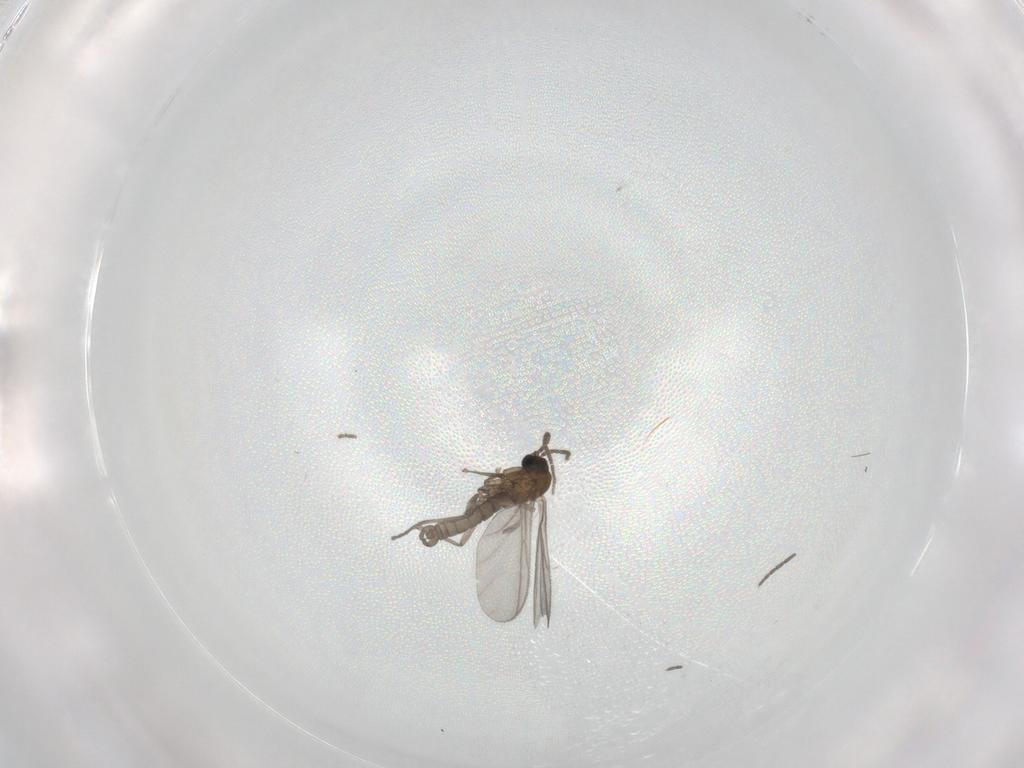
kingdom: Animalia
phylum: Arthropoda
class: Insecta
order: Diptera
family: Sciaridae
